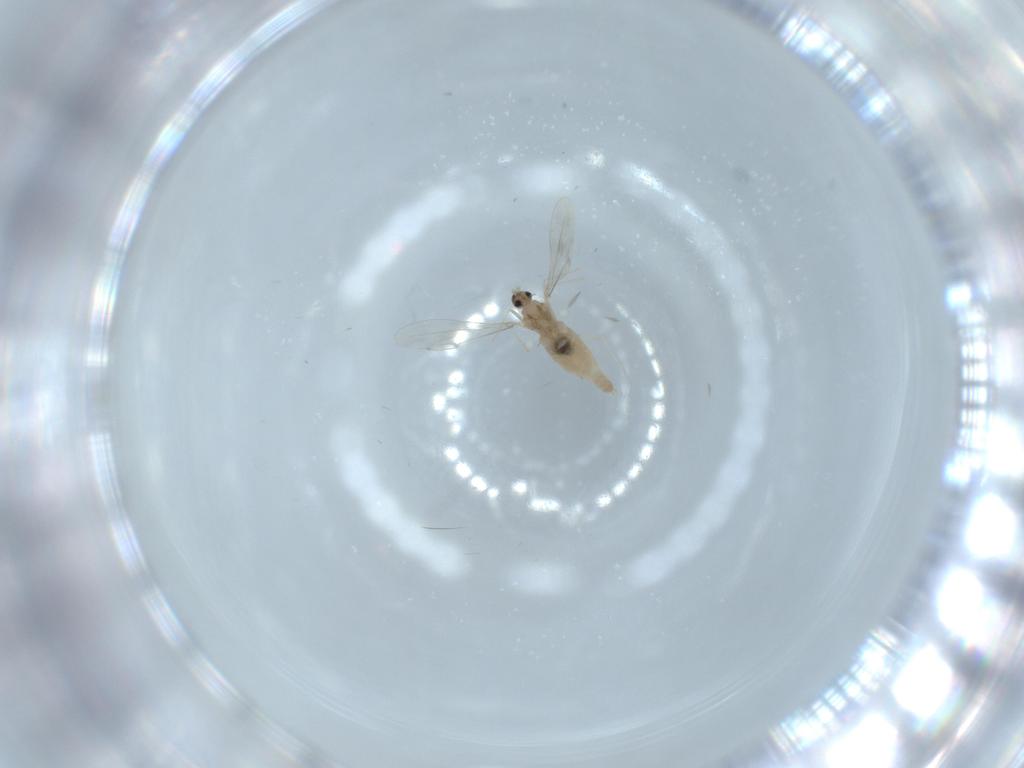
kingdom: Animalia
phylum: Arthropoda
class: Insecta
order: Diptera
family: Cecidomyiidae
